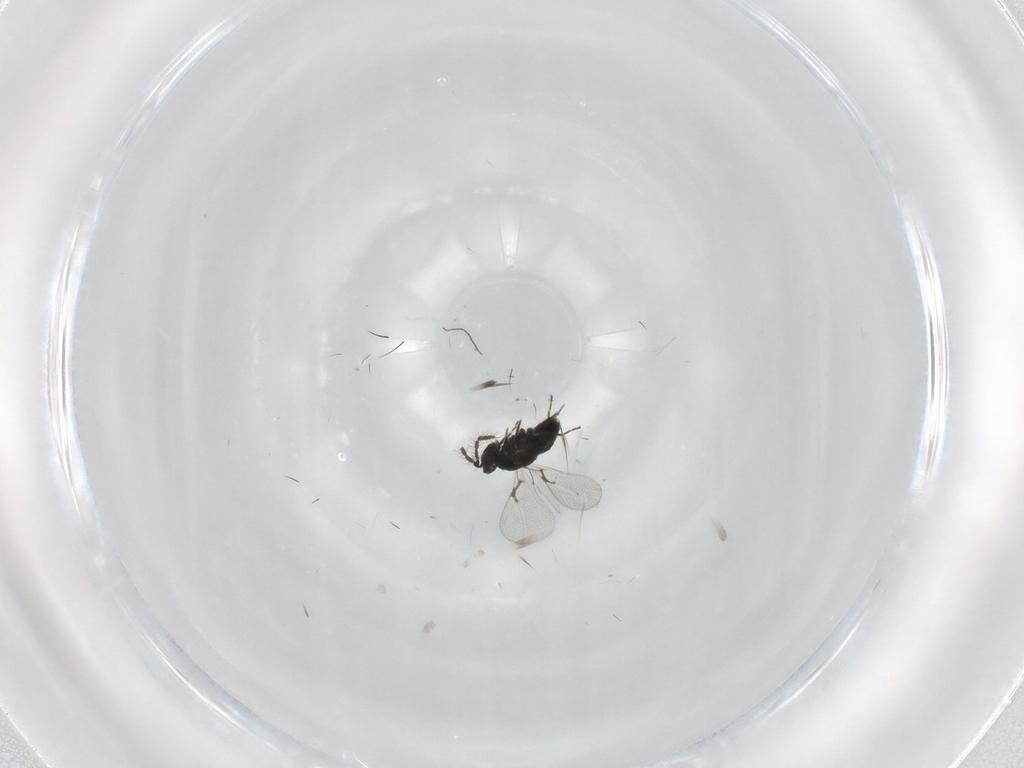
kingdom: Animalia
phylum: Arthropoda
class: Insecta
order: Hymenoptera
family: Trichogrammatidae
